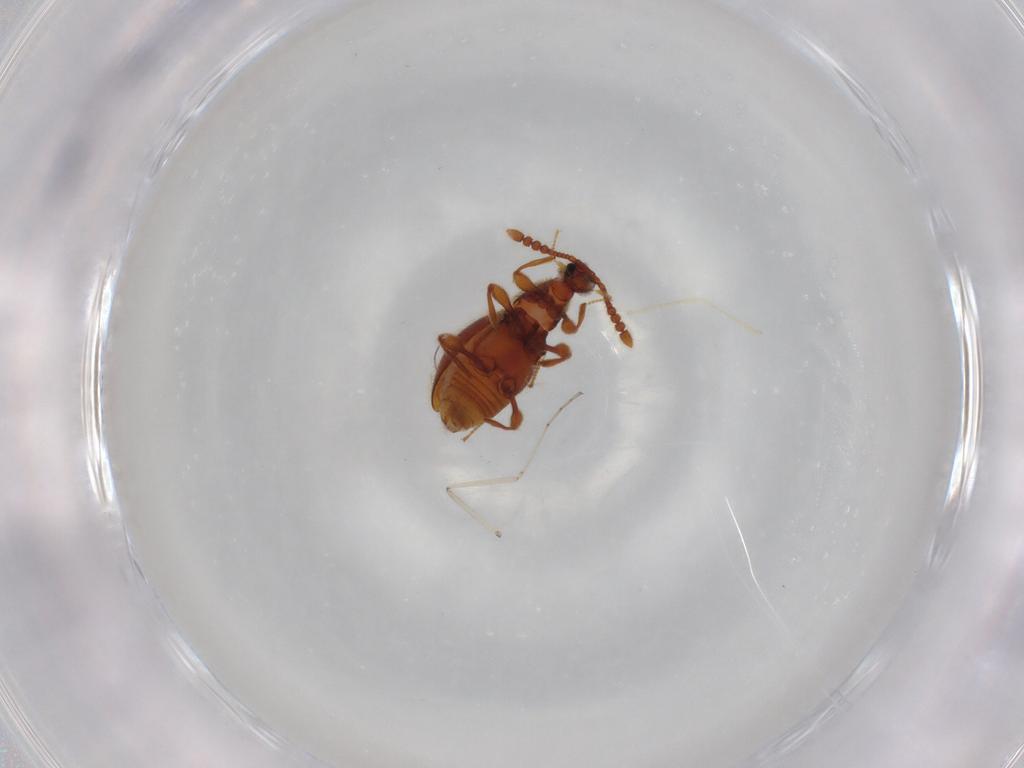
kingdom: Animalia
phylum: Arthropoda
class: Insecta
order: Coleoptera
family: Staphylinidae
